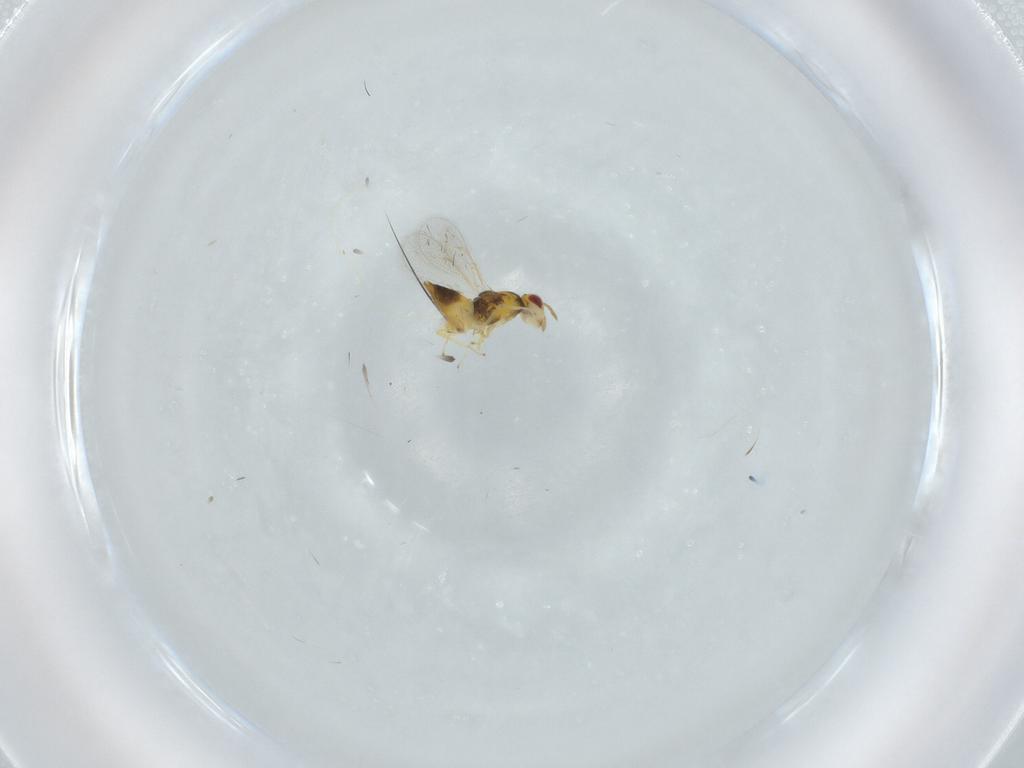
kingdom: Animalia
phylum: Arthropoda
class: Insecta
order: Hymenoptera
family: Eulophidae
